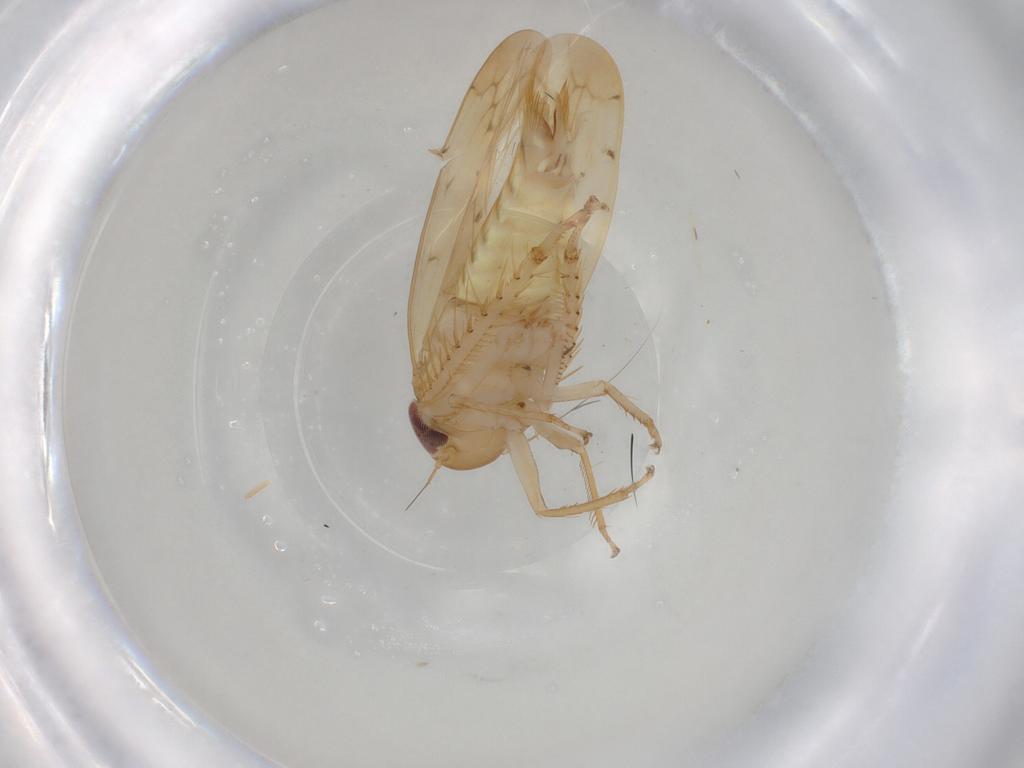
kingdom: Animalia
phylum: Arthropoda
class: Insecta
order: Hemiptera
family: Cicadellidae
